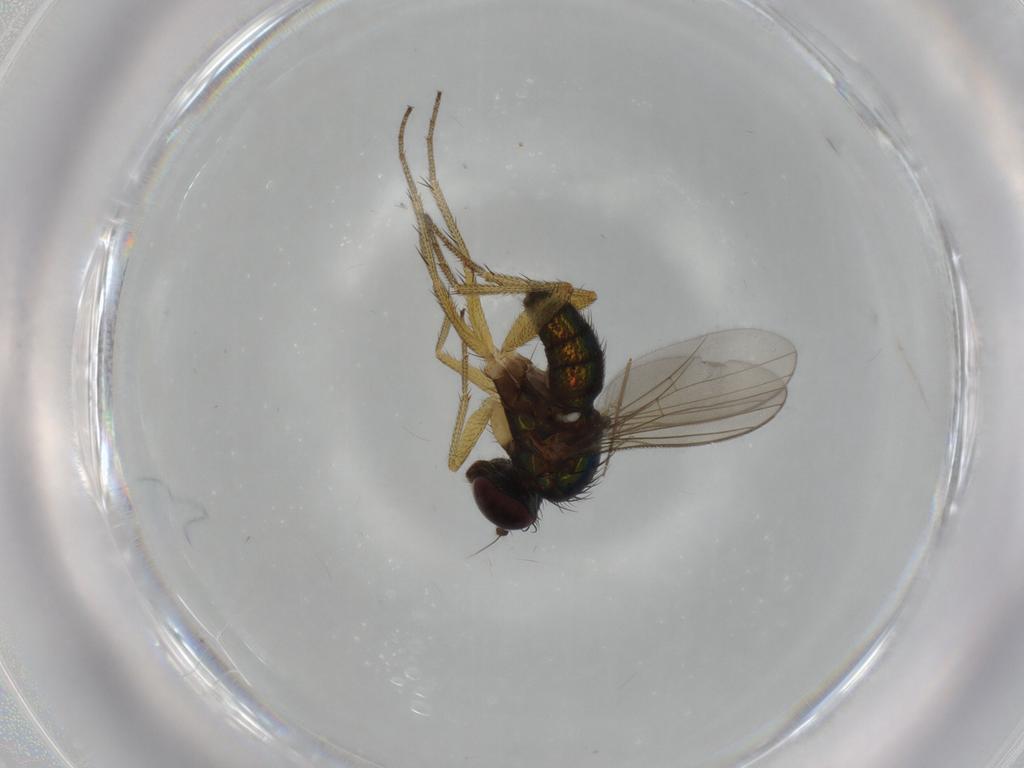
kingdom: Animalia
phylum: Arthropoda
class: Insecta
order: Diptera
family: Dolichopodidae
